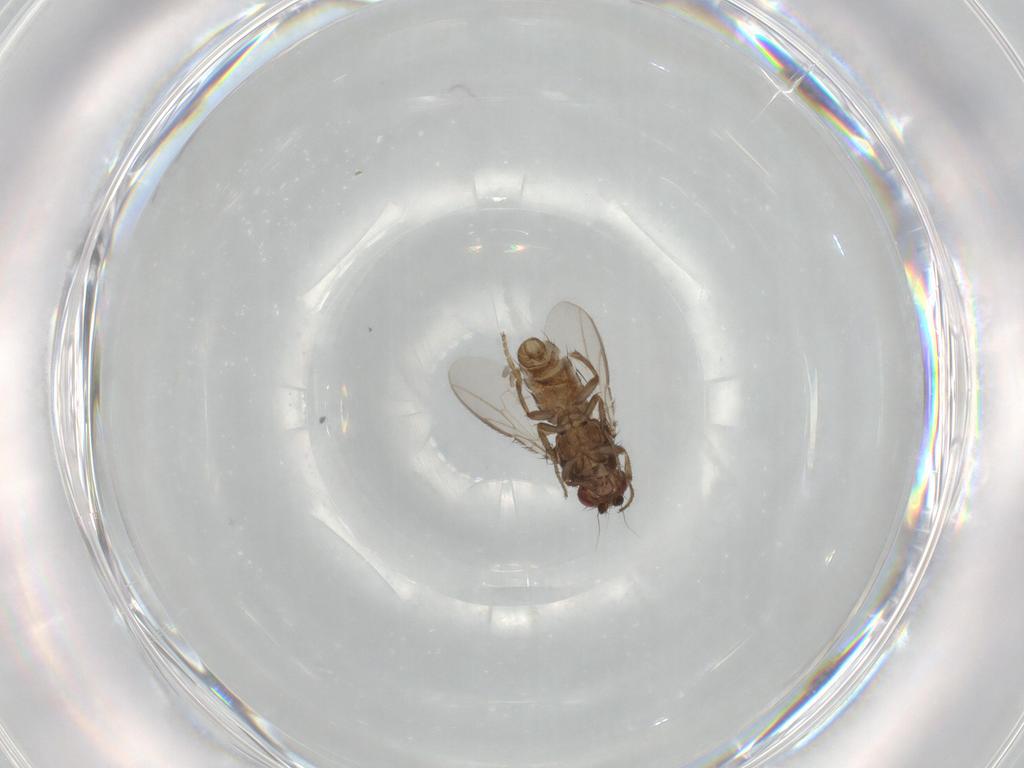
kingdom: Animalia
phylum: Arthropoda
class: Insecta
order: Diptera
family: Sphaeroceridae
